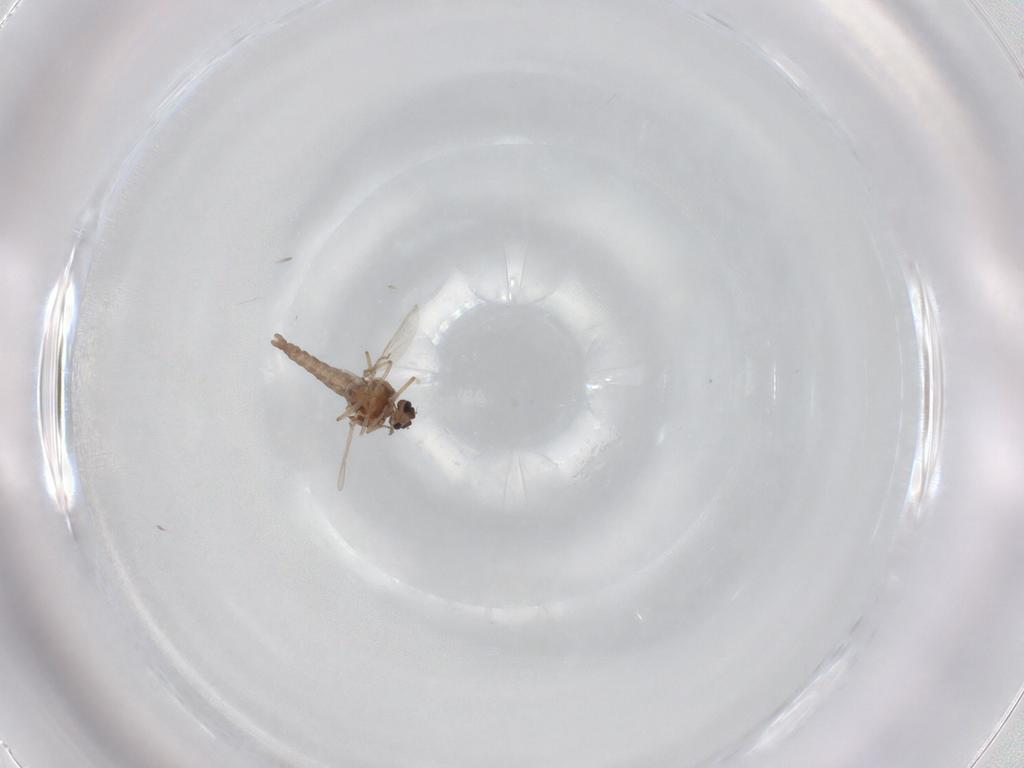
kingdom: Animalia
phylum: Arthropoda
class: Insecta
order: Diptera
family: Ceratopogonidae
